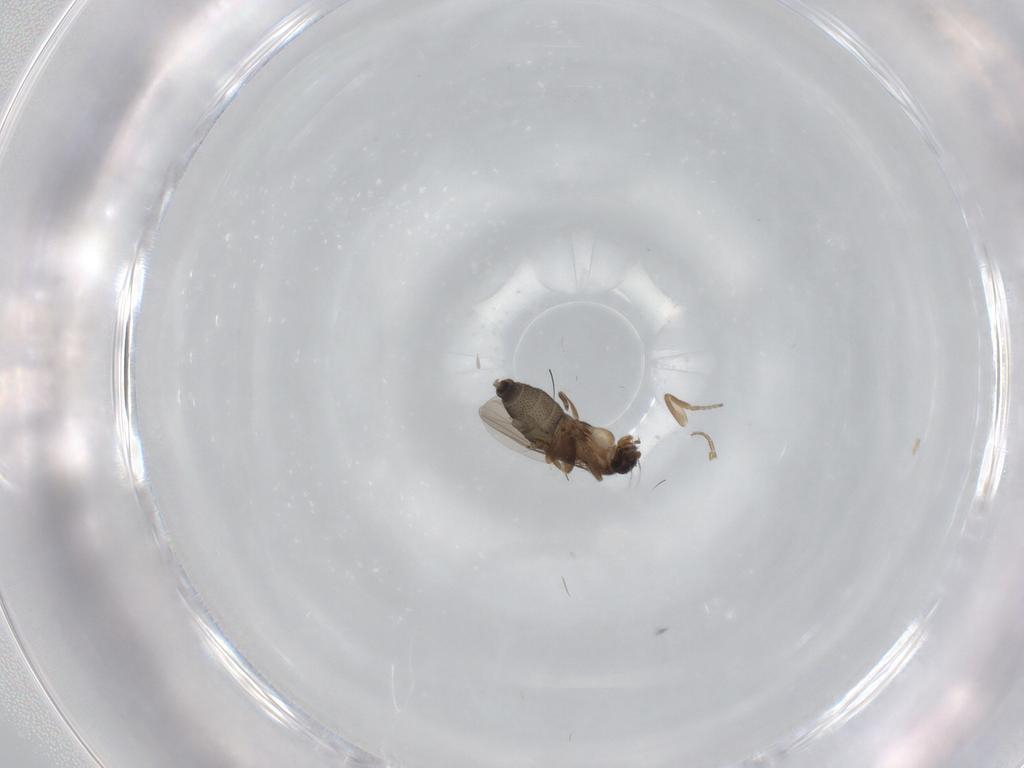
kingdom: Animalia
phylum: Arthropoda
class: Insecta
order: Diptera
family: Phoridae
